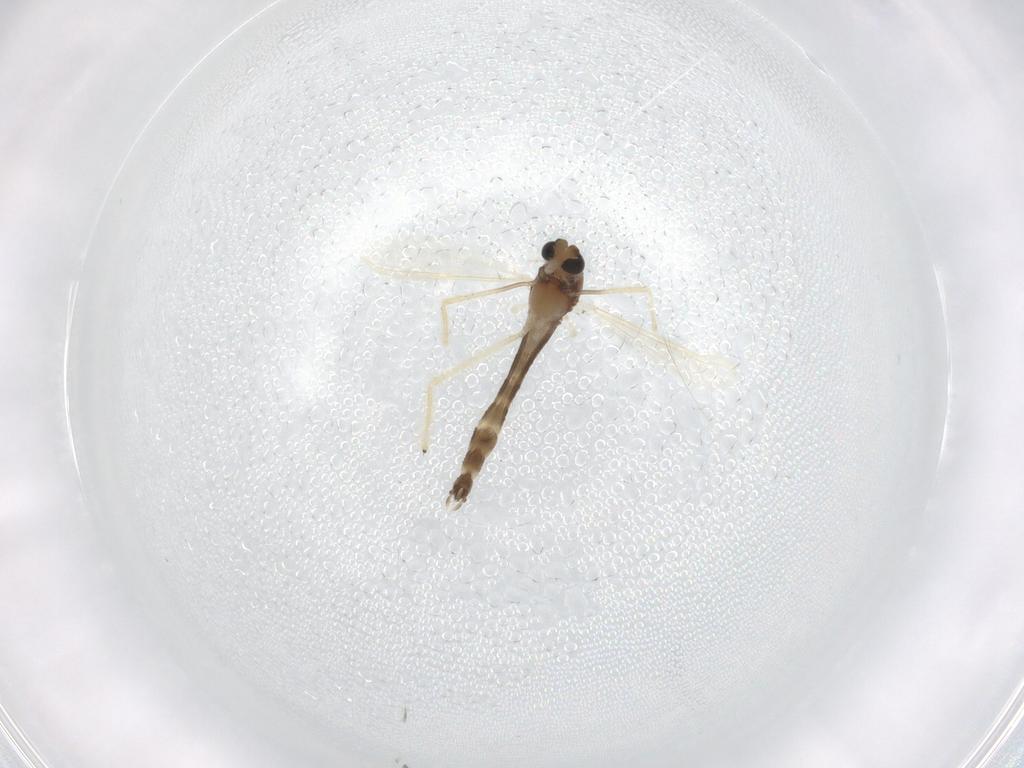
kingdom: Animalia
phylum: Arthropoda
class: Insecta
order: Diptera
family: Chironomidae
